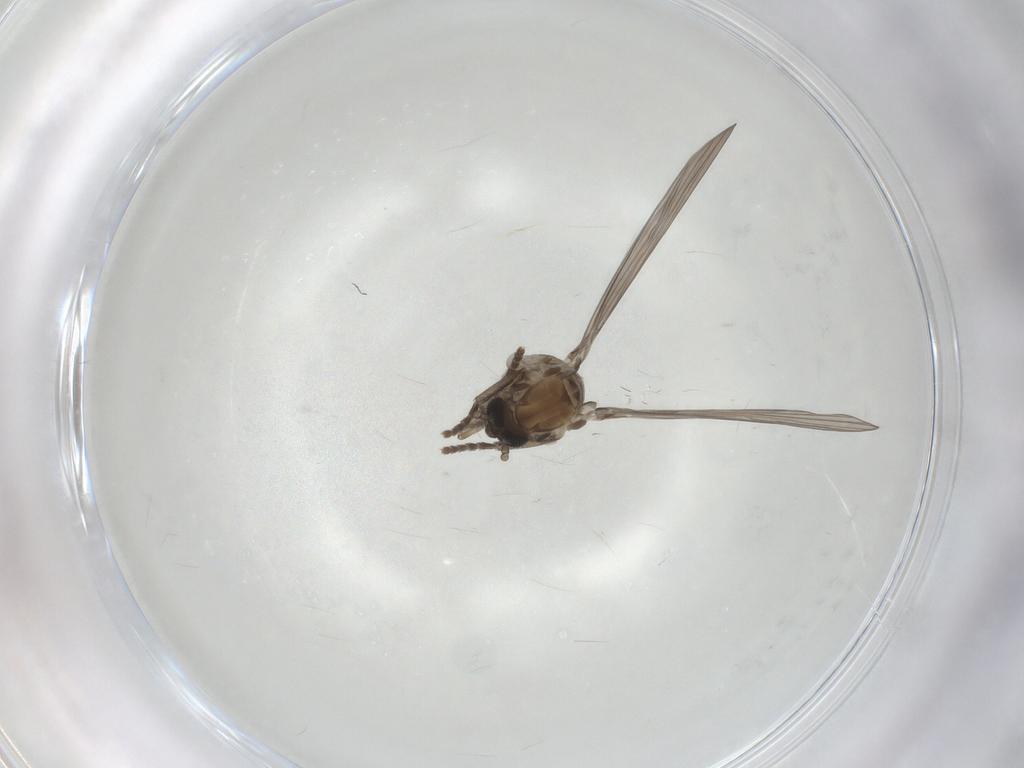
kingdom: Animalia
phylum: Arthropoda
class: Insecta
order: Diptera
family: Psychodidae
